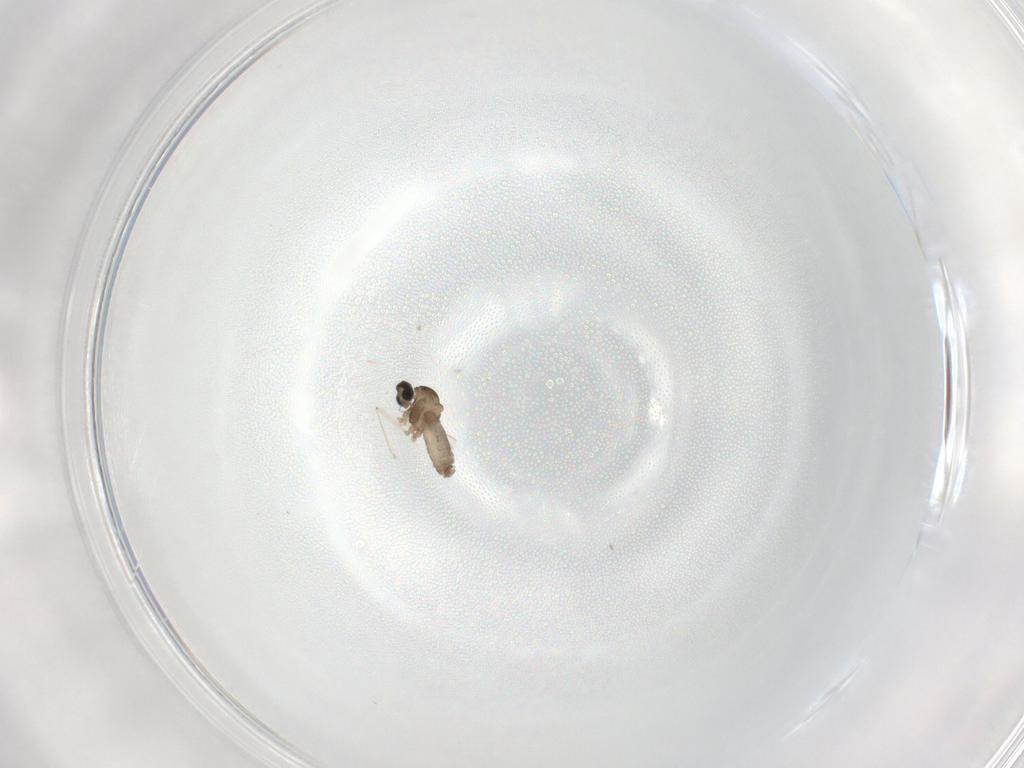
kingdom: Animalia
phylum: Arthropoda
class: Insecta
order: Diptera
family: Cecidomyiidae
